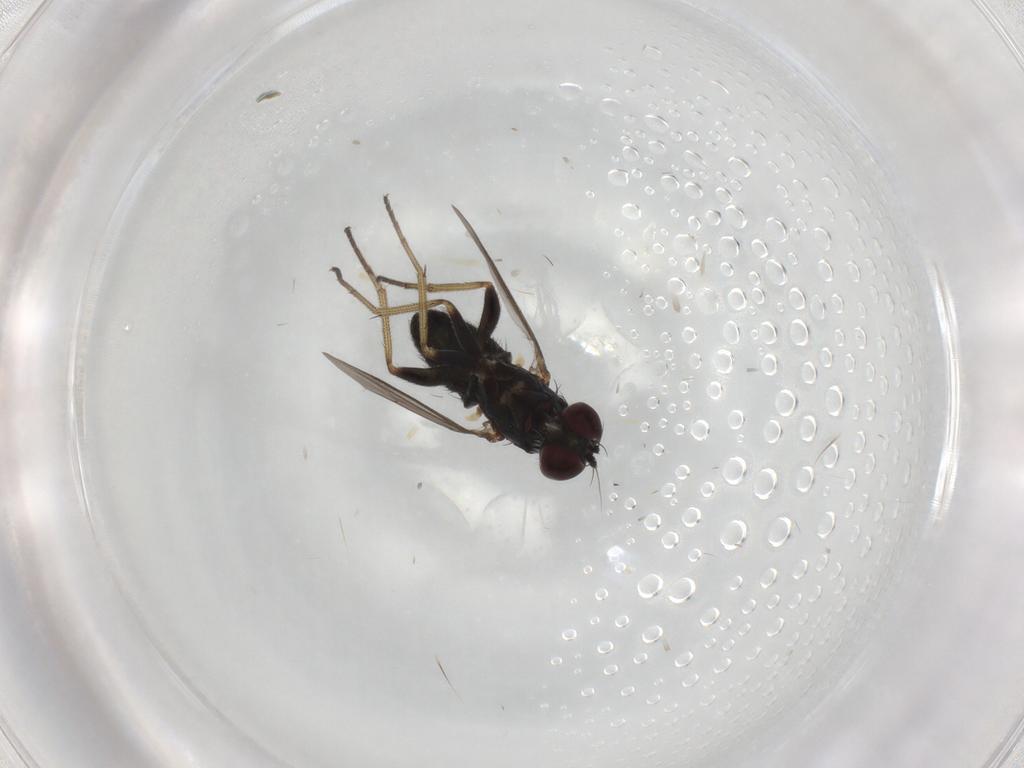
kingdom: Animalia
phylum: Arthropoda
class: Insecta
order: Diptera
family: Dolichopodidae
